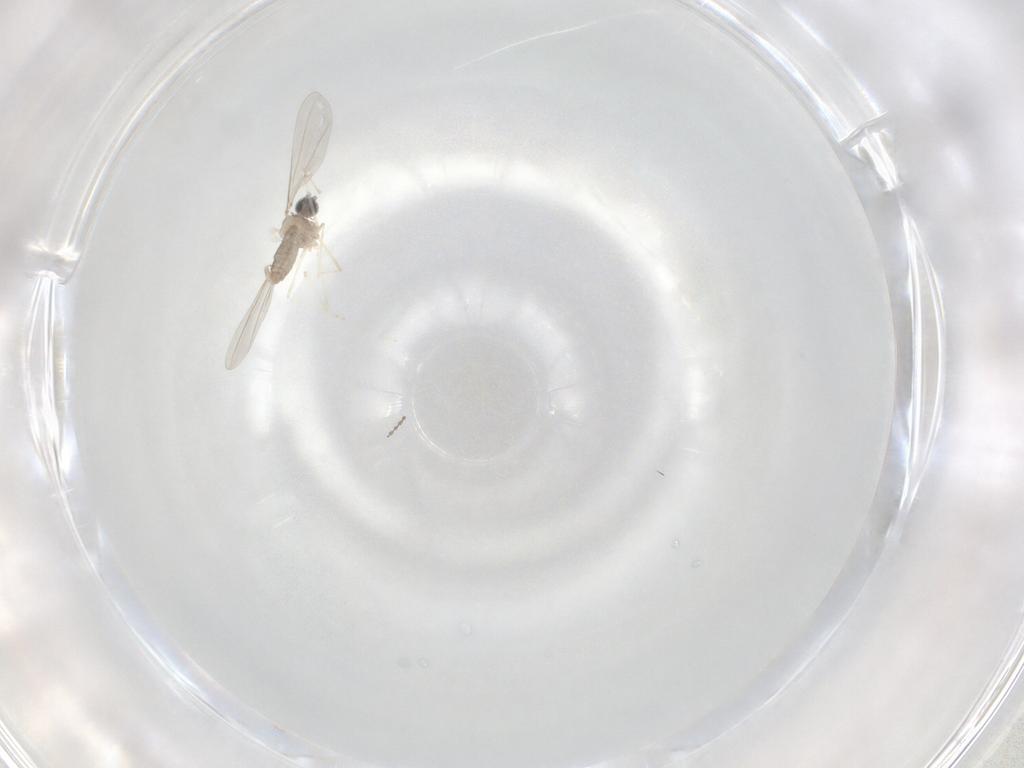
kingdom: Animalia
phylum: Arthropoda
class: Insecta
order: Diptera
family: Cecidomyiidae
